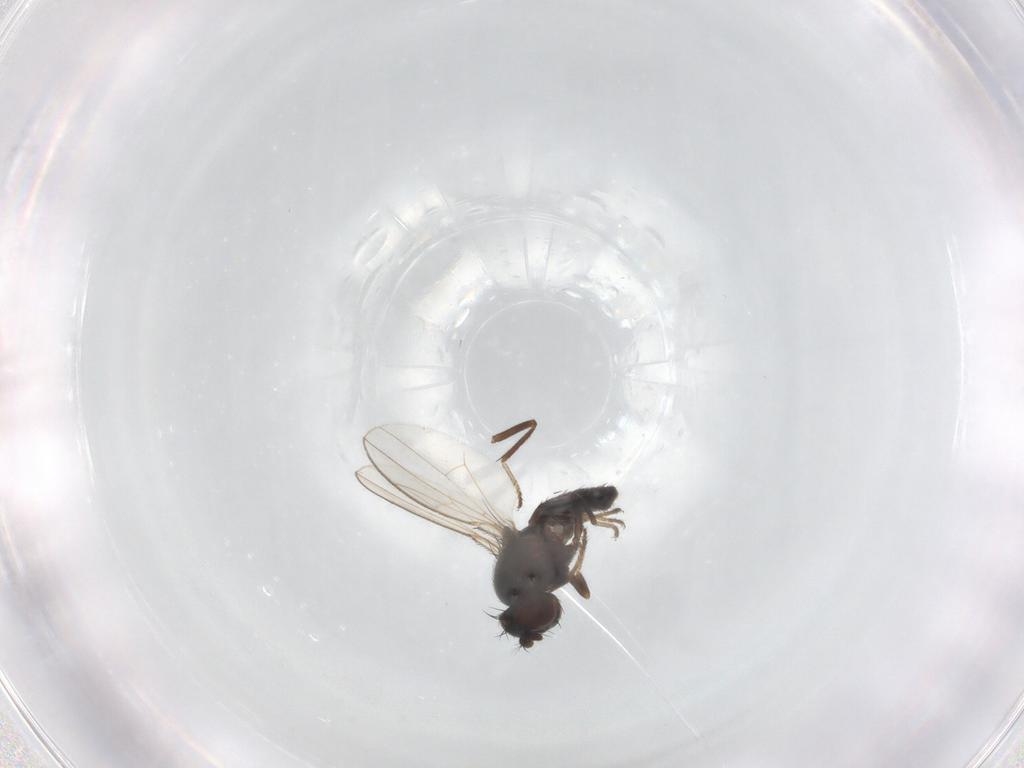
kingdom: Animalia
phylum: Arthropoda
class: Insecta
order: Diptera
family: Ephydridae
